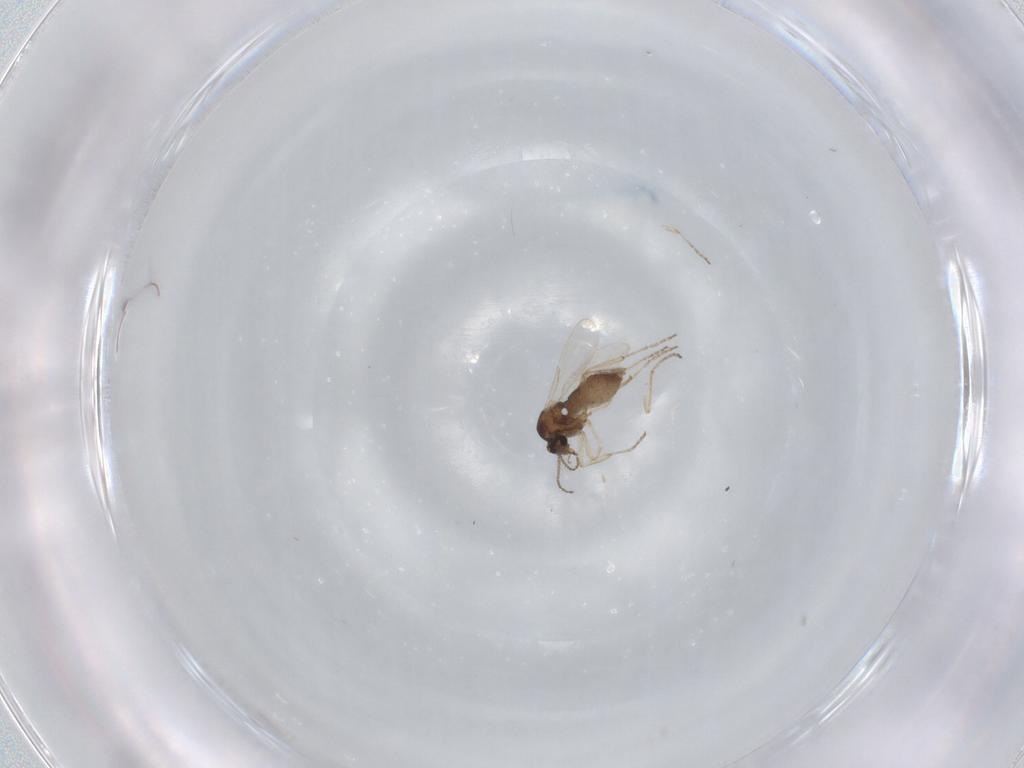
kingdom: Animalia
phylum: Arthropoda
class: Insecta
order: Diptera
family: Ceratopogonidae
